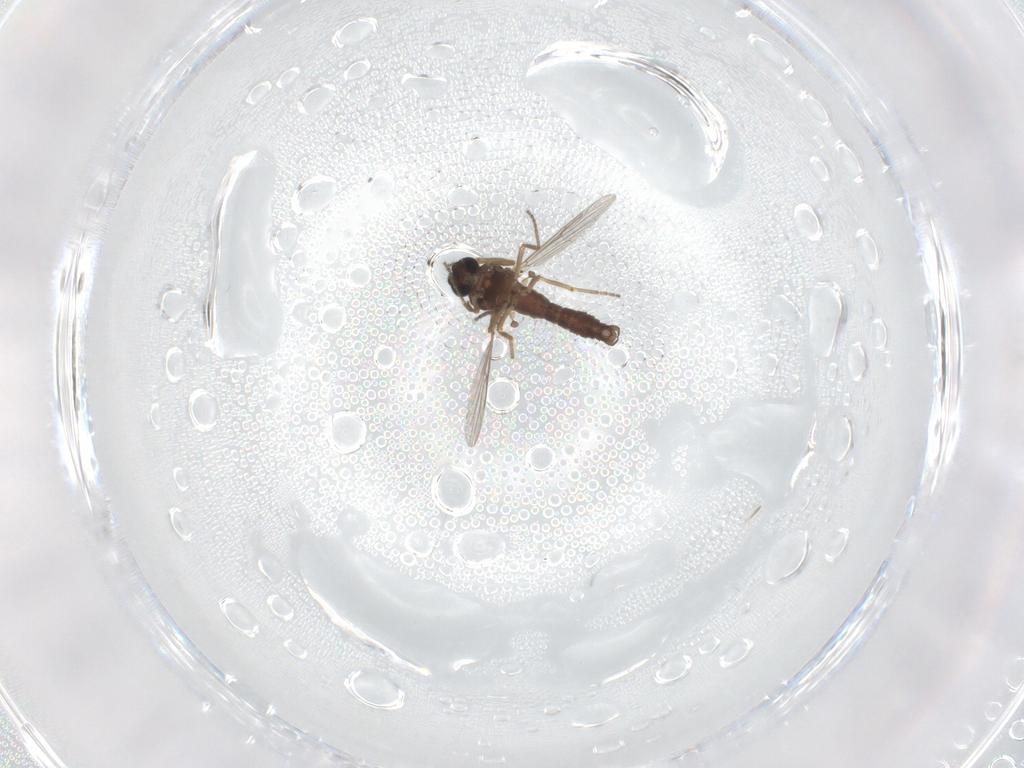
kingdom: Animalia
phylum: Arthropoda
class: Insecta
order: Diptera
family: Ceratopogonidae
